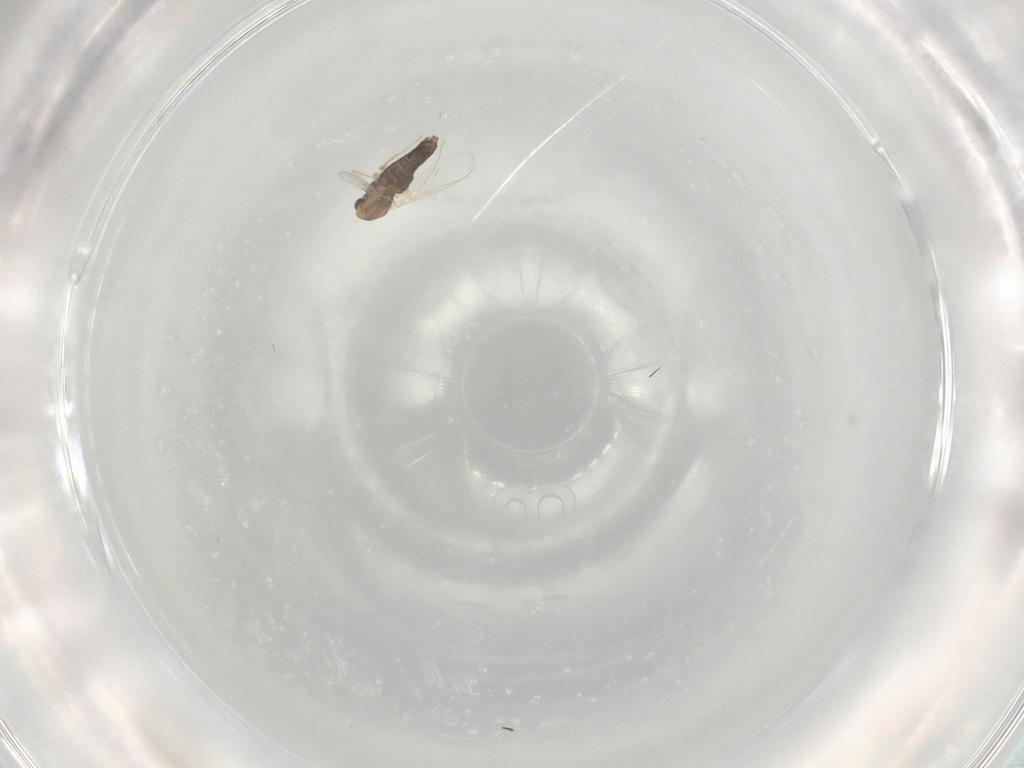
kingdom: Animalia
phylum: Arthropoda
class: Insecta
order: Diptera
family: Chironomidae
